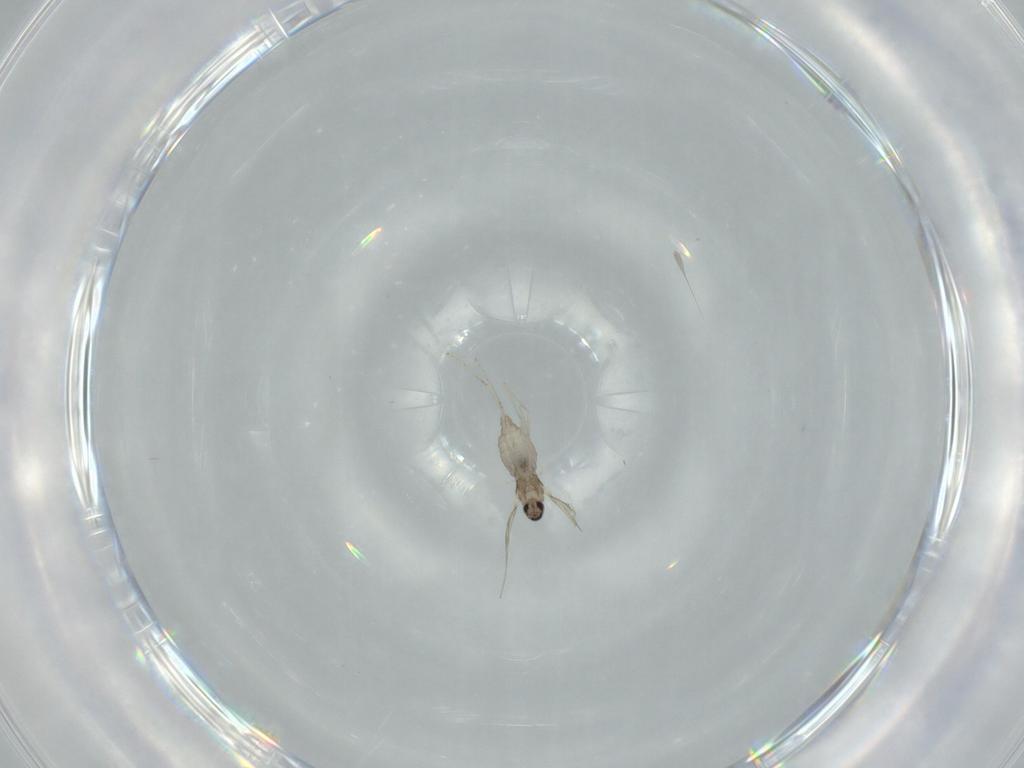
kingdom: Animalia
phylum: Arthropoda
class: Insecta
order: Diptera
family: Cecidomyiidae
